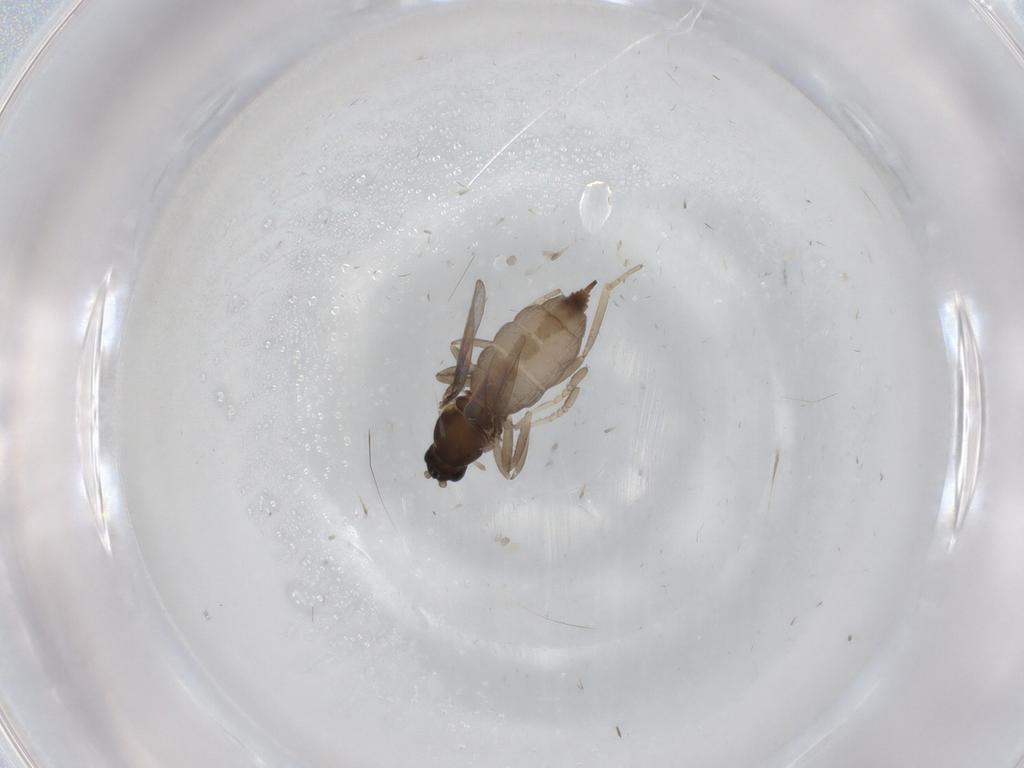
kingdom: Animalia
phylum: Arthropoda
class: Insecta
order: Diptera
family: Cecidomyiidae
